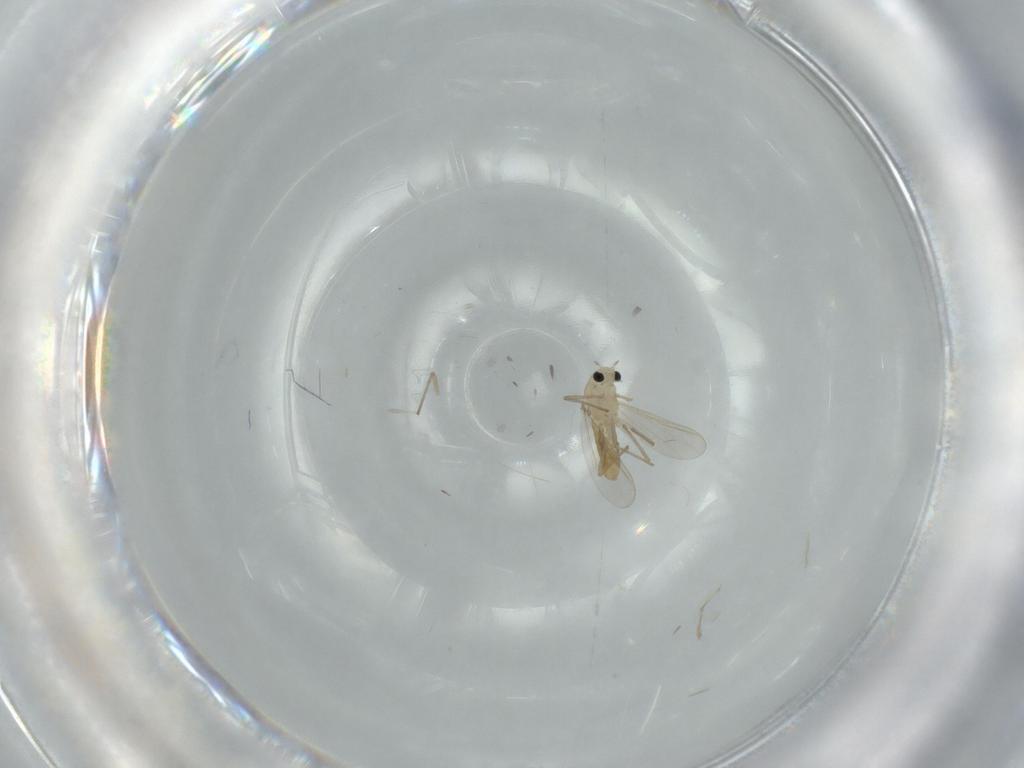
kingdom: Animalia
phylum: Arthropoda
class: Insecta
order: Diptera
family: Chironomidae
